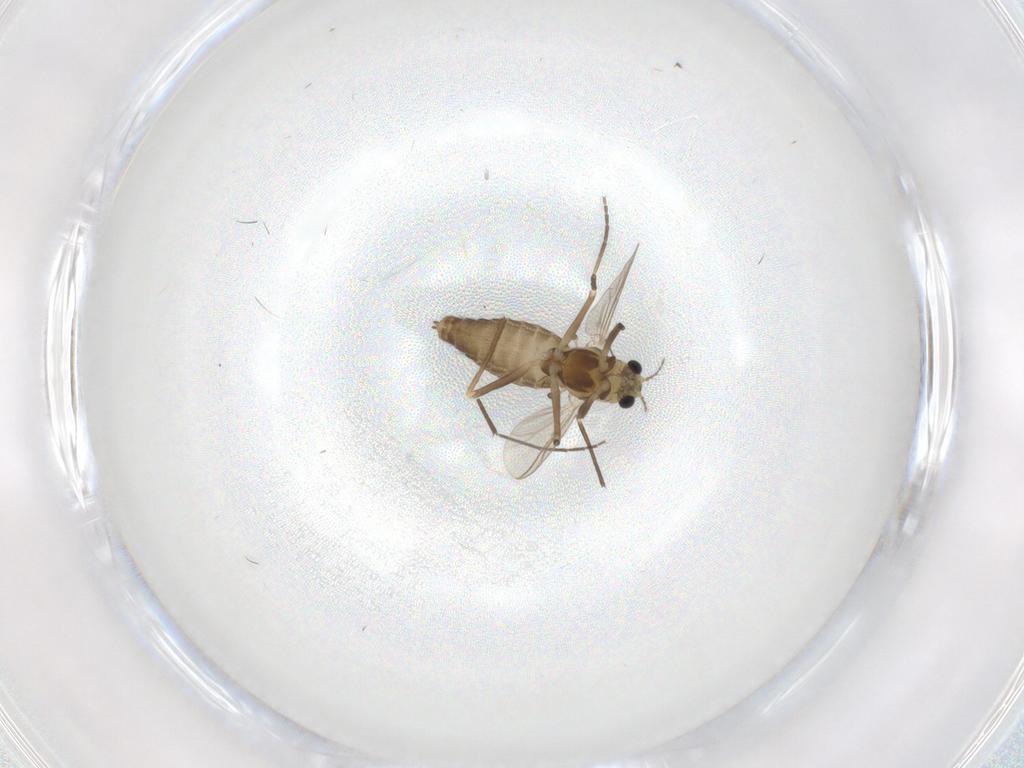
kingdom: Animalia
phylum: Arthropoda
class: Insecta
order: Diptera
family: Chironomidae
